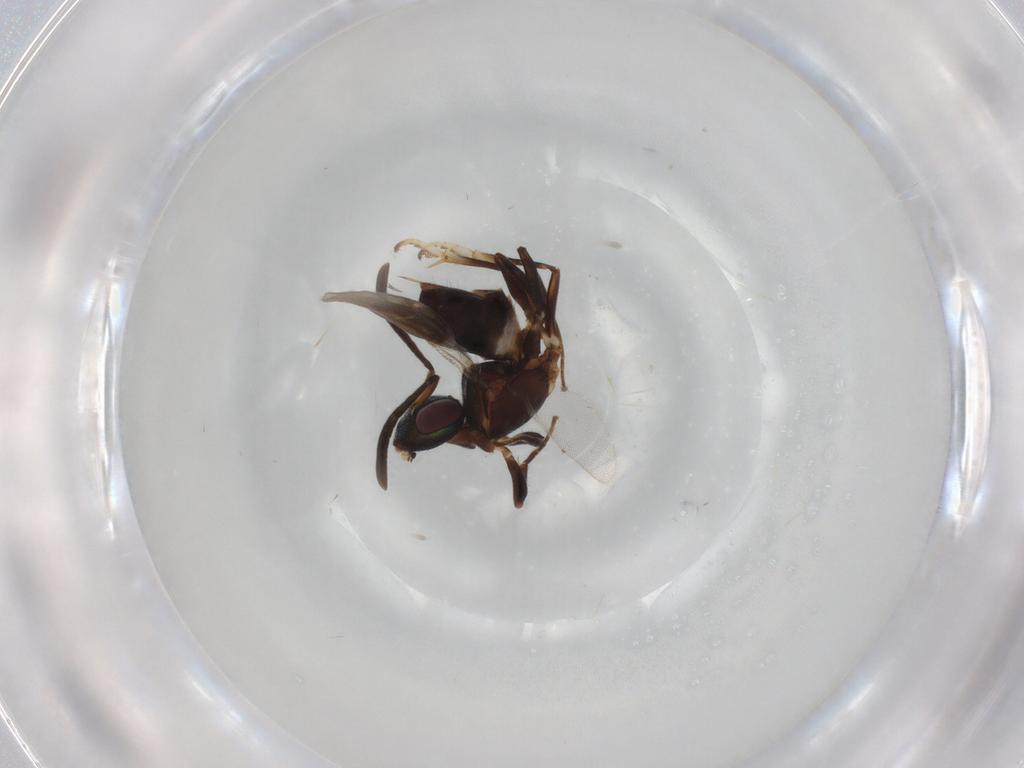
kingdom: Animalia
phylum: Arthropoda
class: Insecta
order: Hymenoptera
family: Eupelmidae
